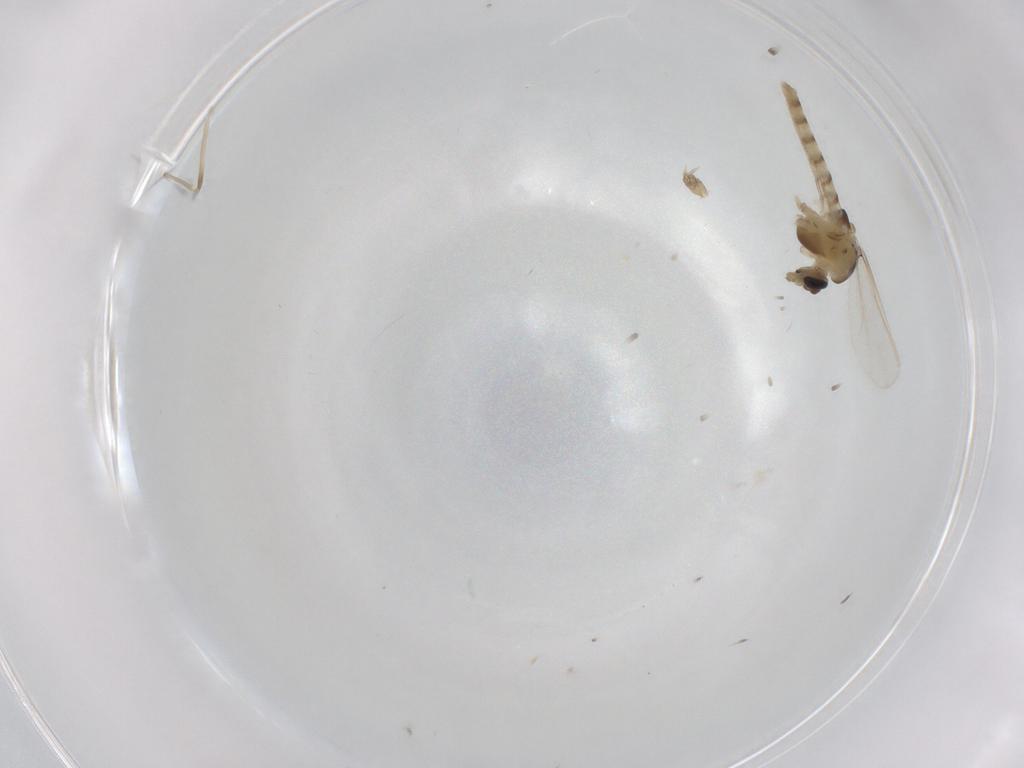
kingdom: Animalia
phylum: Arthropoda
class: Insecta
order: Diptera
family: Chironomidae
